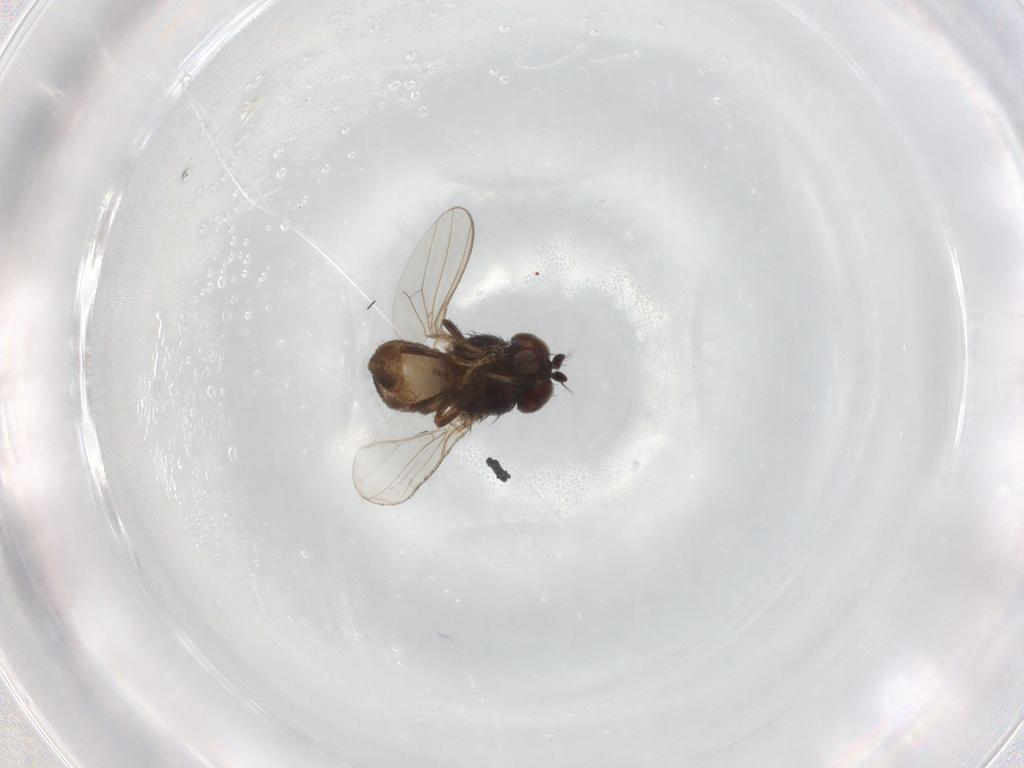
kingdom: Animalia
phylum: Arthropoda
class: Insecta
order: Diptera
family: Ephydridae
